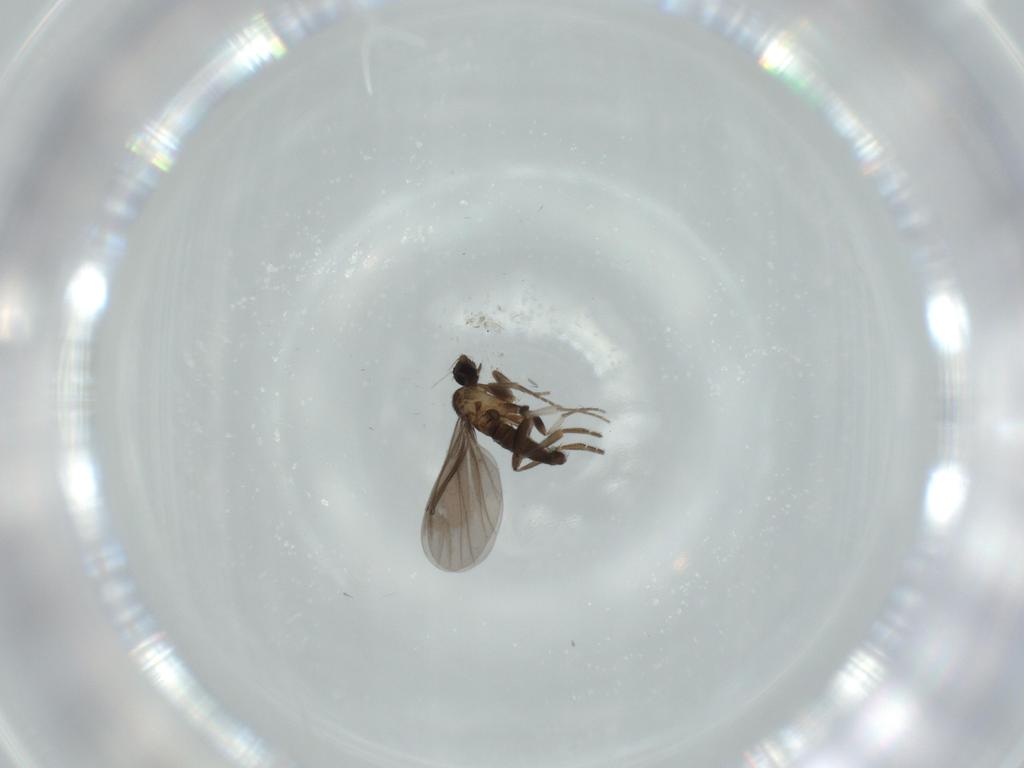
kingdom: Animalia
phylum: Arthropoda
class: Insecta
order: Diptera
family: Phoridae
